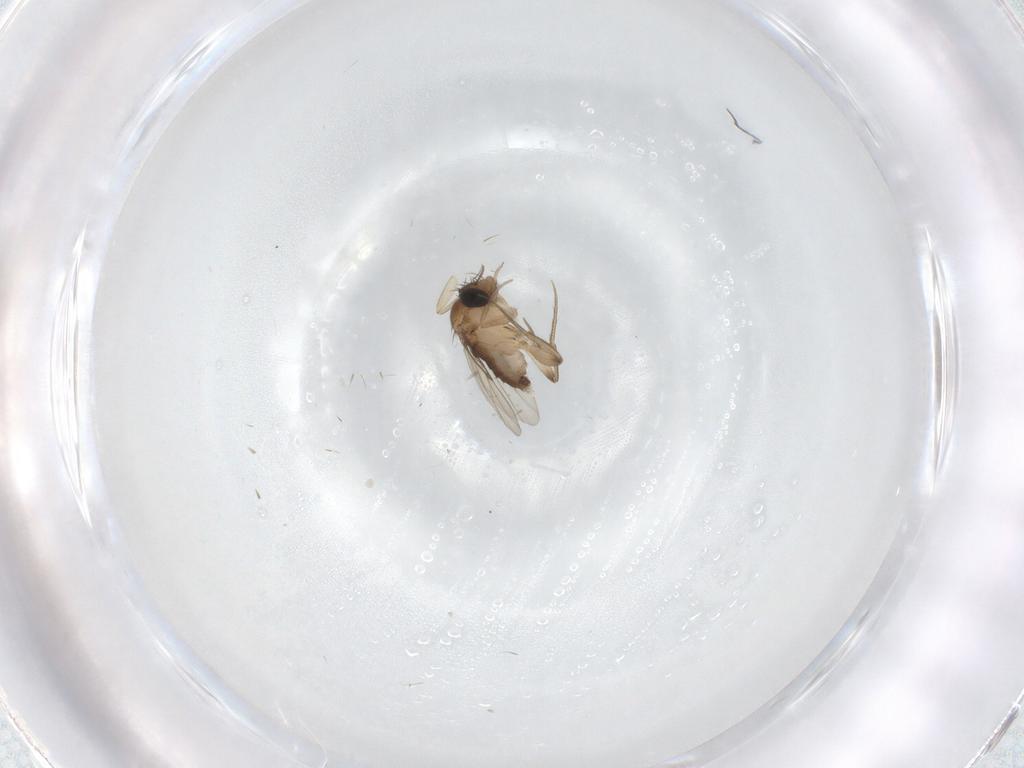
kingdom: Animalia
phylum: Arthropoda
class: Insecta
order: Diptera
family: Phoridae
